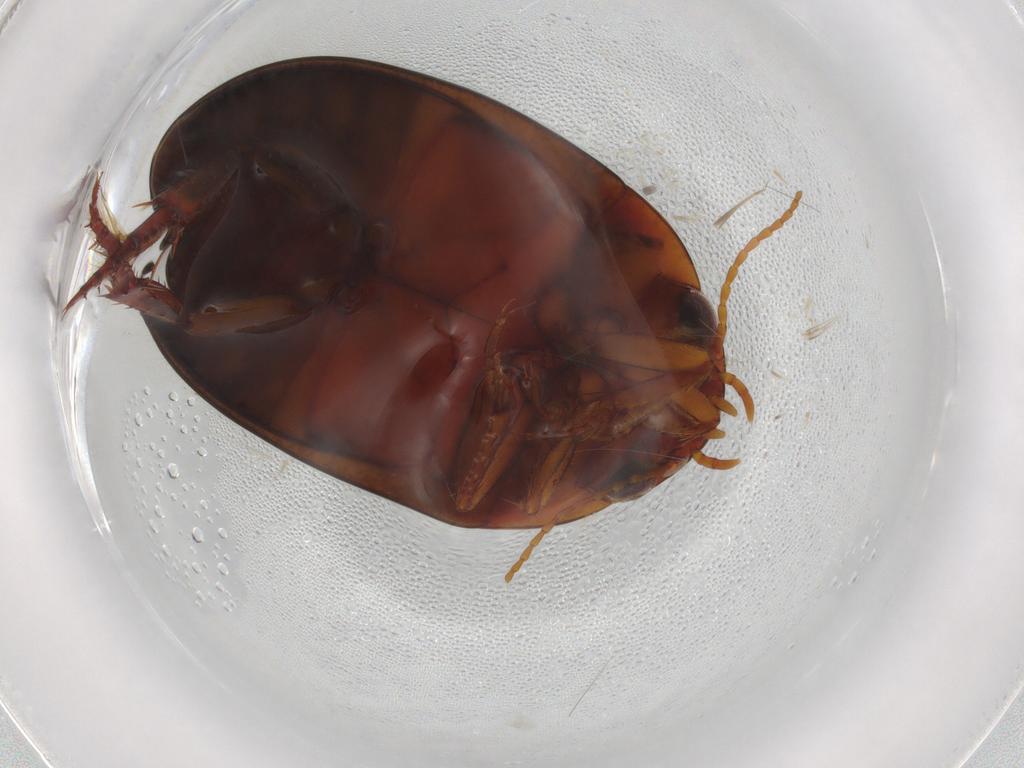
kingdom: Animalia
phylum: Arthropoda
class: Insecta
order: Coleoptera
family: Dytiscidae
